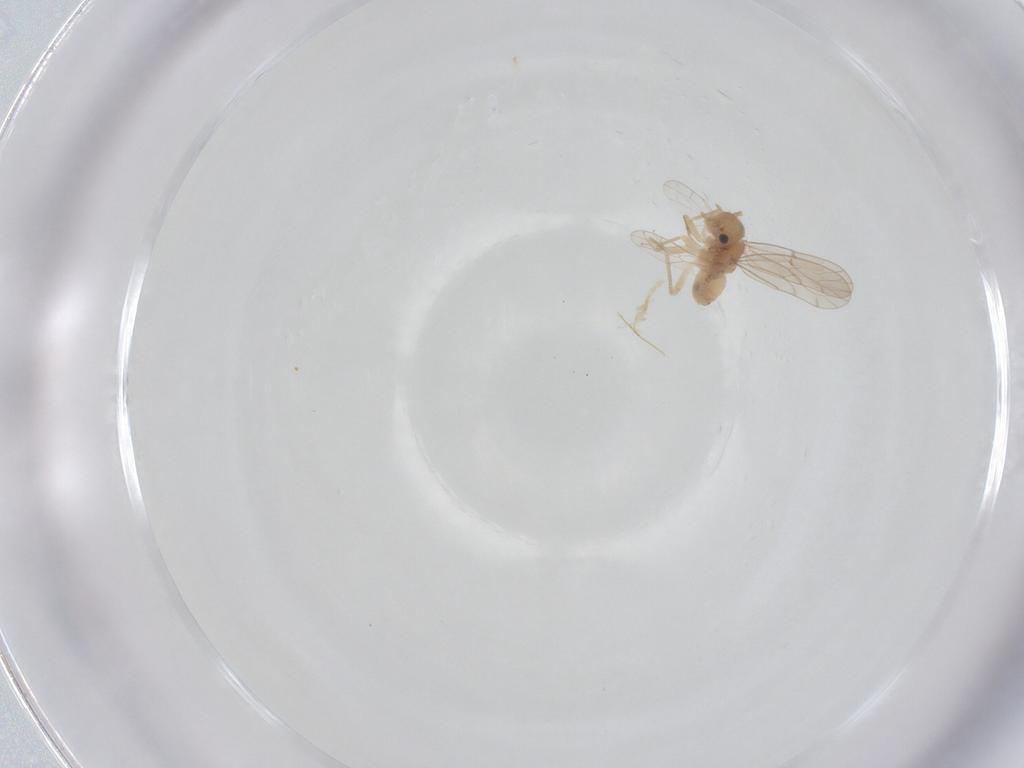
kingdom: Animalia
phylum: Arthropoda
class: Insecta
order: Psocodea
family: Ectopsocidae
